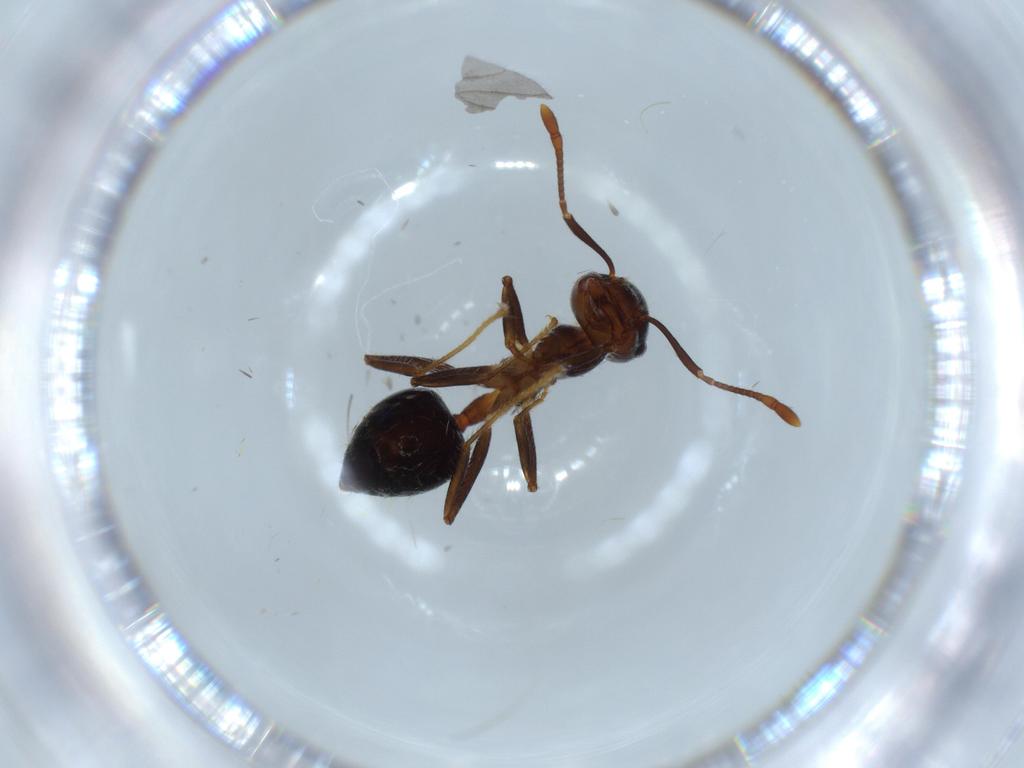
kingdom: Animalia
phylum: Arthropoda
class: Insecta
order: Hymenoptera
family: Formicidae
